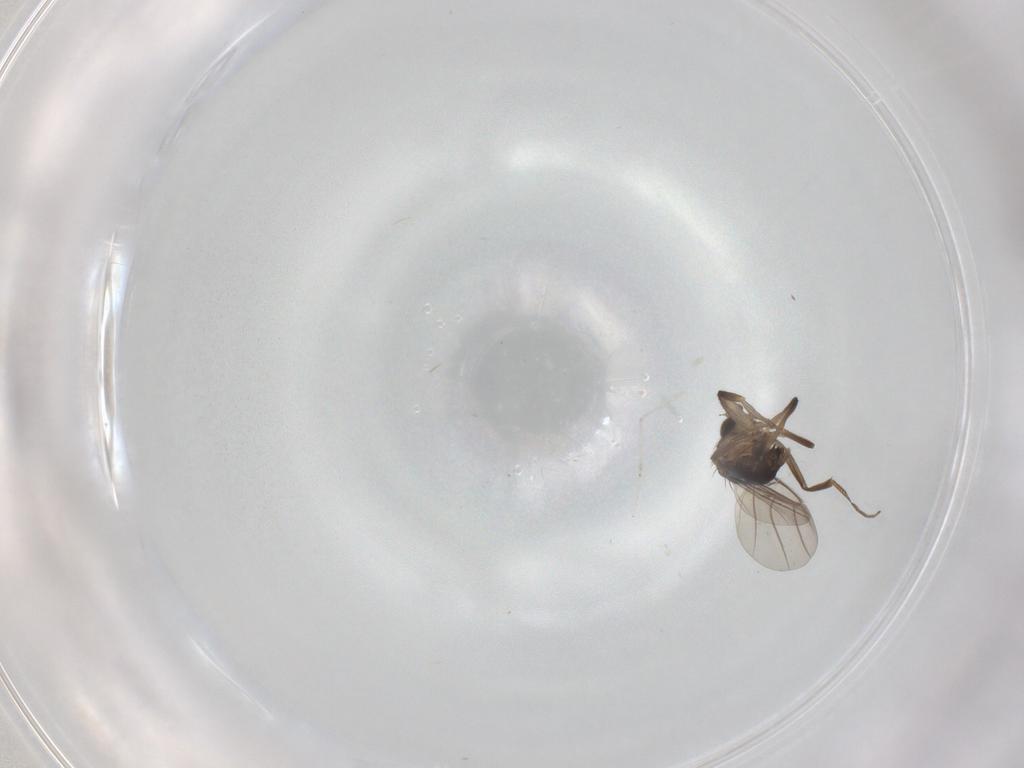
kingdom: Animalia
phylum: Arthropoda
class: Insecta
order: Diptera
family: Phoridae
